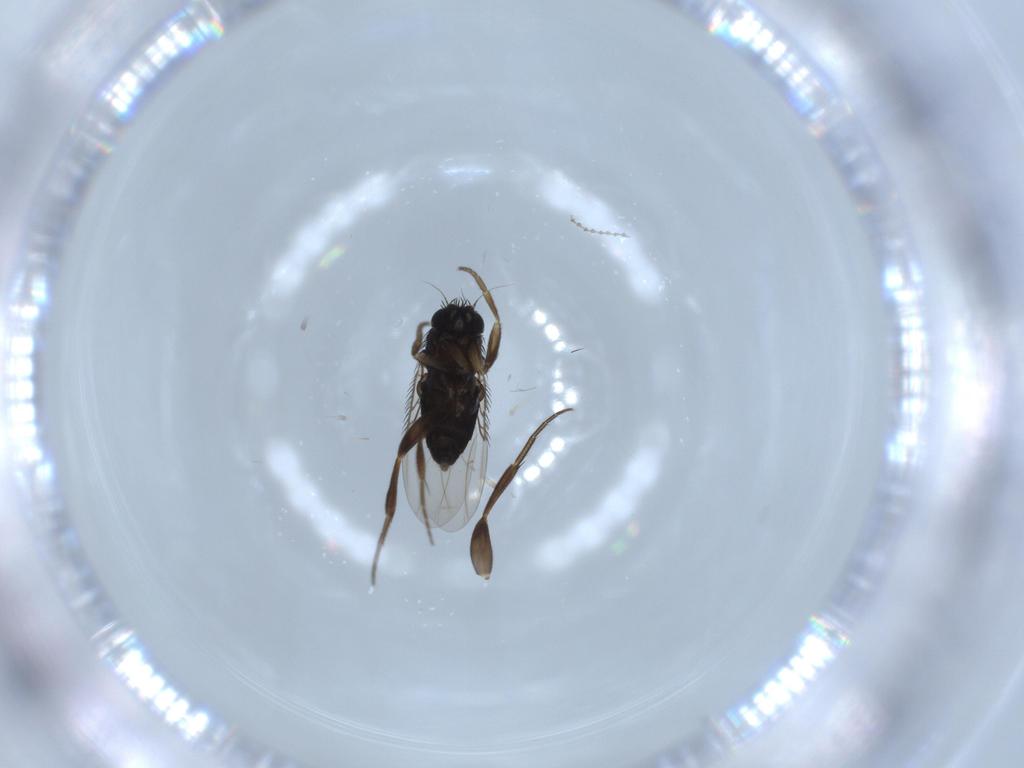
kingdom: Animalia
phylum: Arthropoda
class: Insecta
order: Diptera
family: Phoridae
